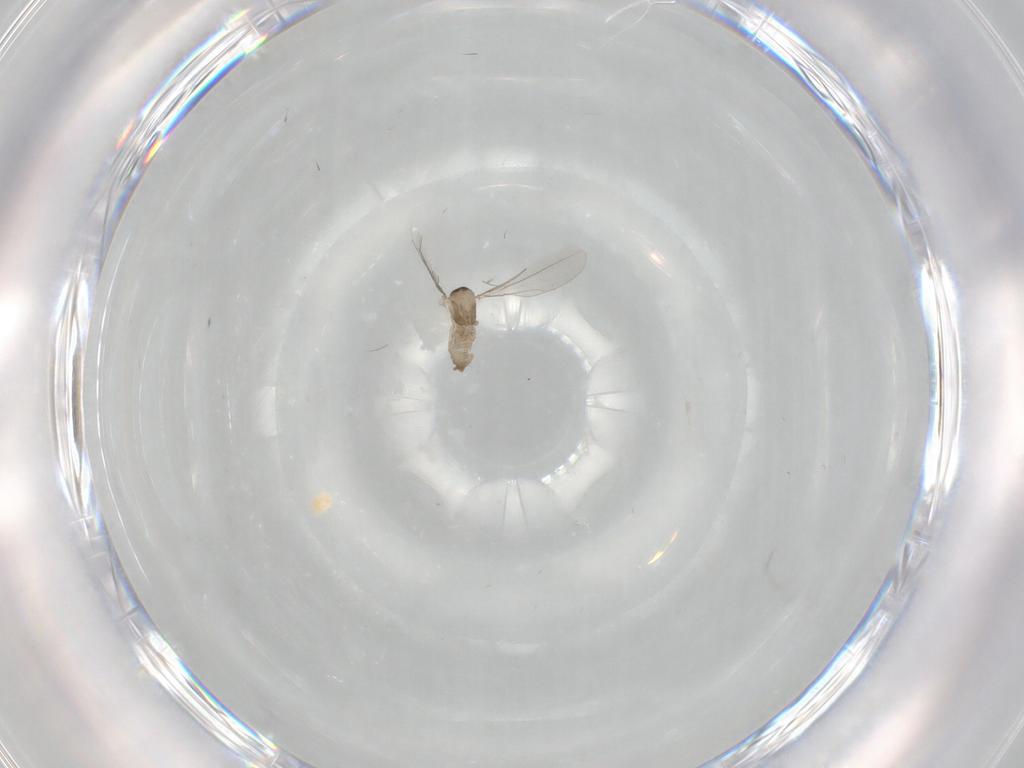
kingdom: Animalia
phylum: Arthropoda
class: Insecta
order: Diptera
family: Cecidomyiidae
